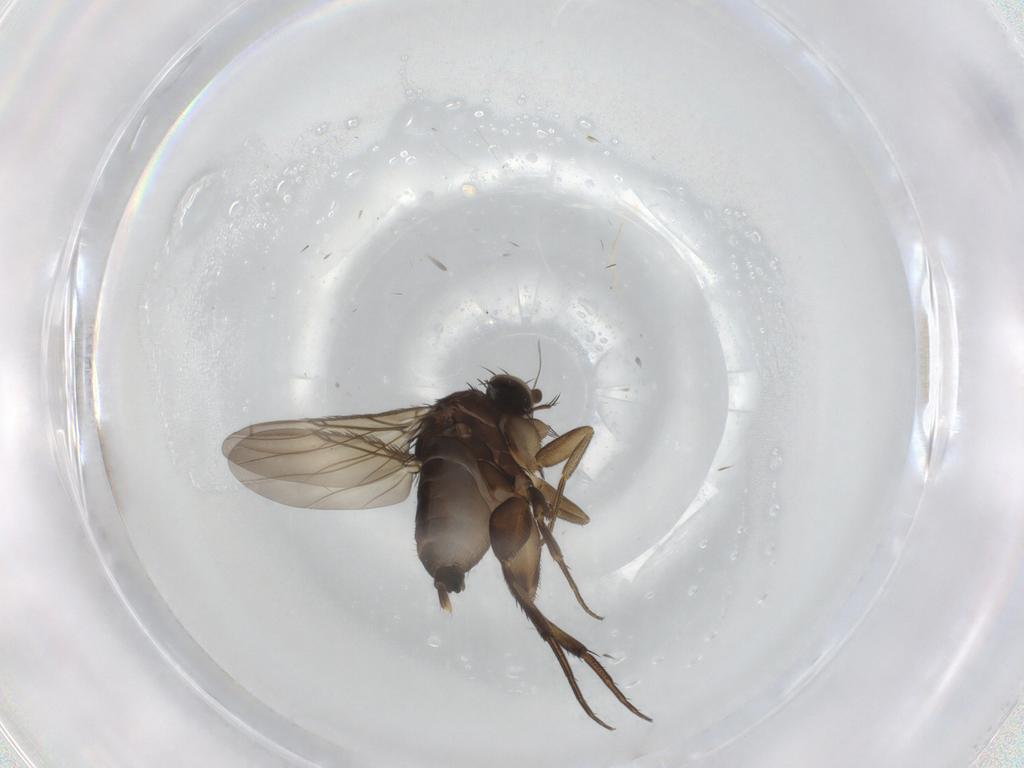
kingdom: Animalia
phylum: Arthropoda
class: Insecta
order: Diptera
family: Phoridae
